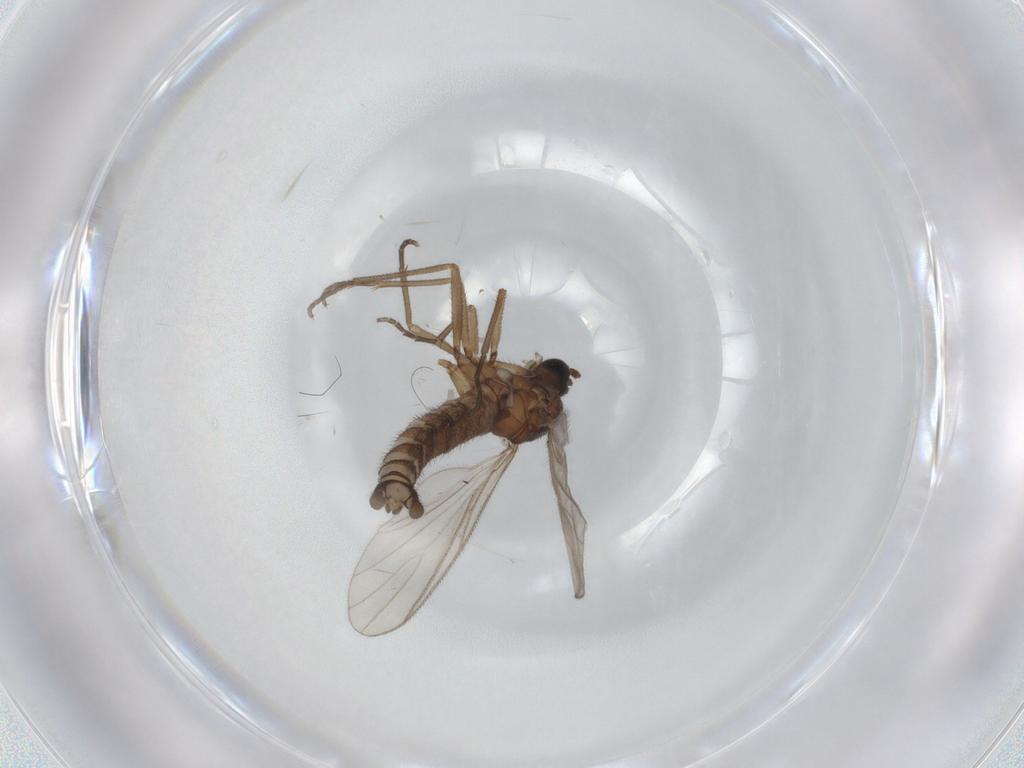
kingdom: Animalia
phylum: Arthropoda
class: Insecta
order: Diptera
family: Sciaridae
